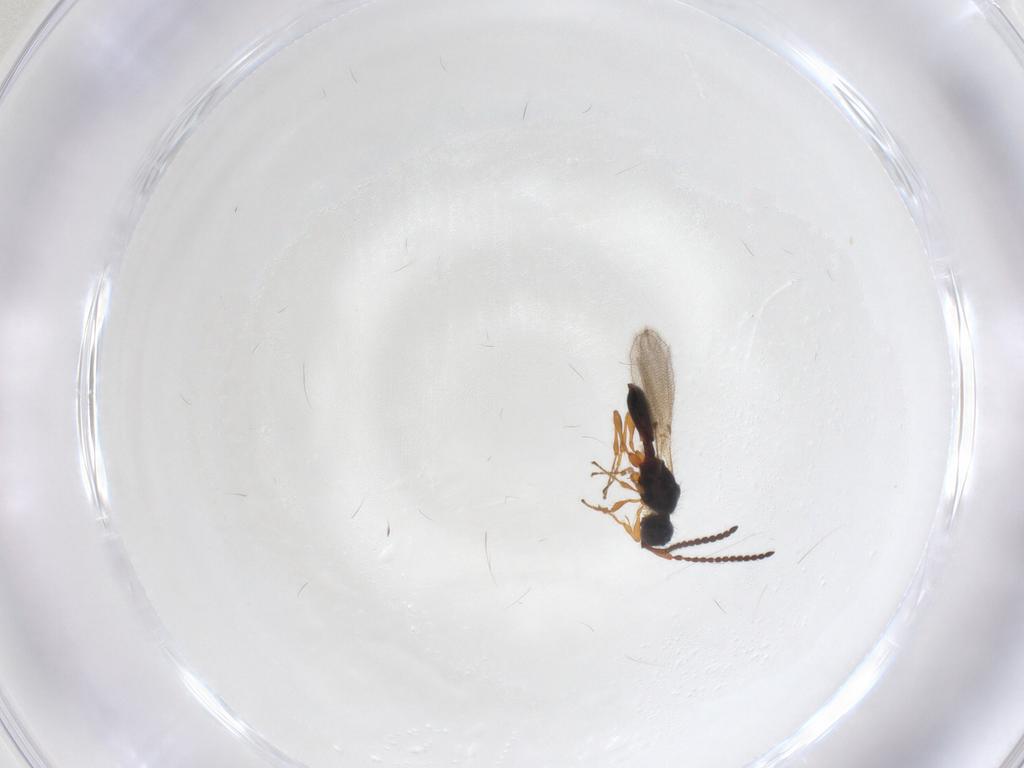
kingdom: Animalia
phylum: Arthropoda
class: Insecta
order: Hymenoptera
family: Diapriidae
